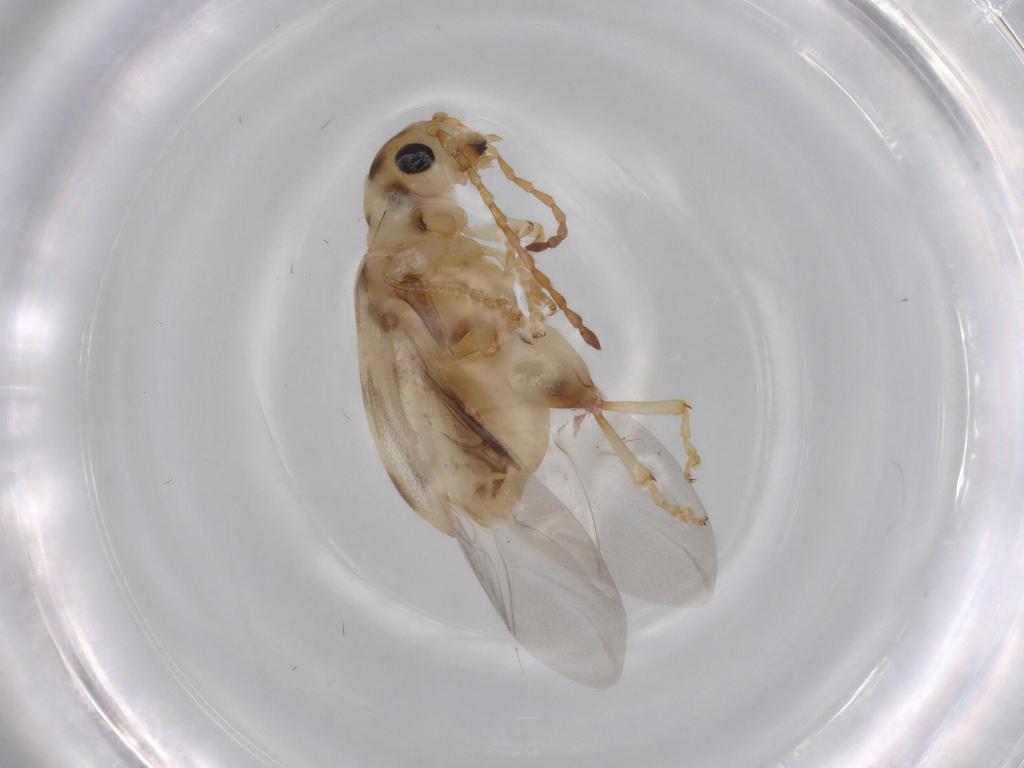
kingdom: Animalia
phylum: Arthropoda
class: Insecta
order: Coleoptera
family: Chrysomelidae
